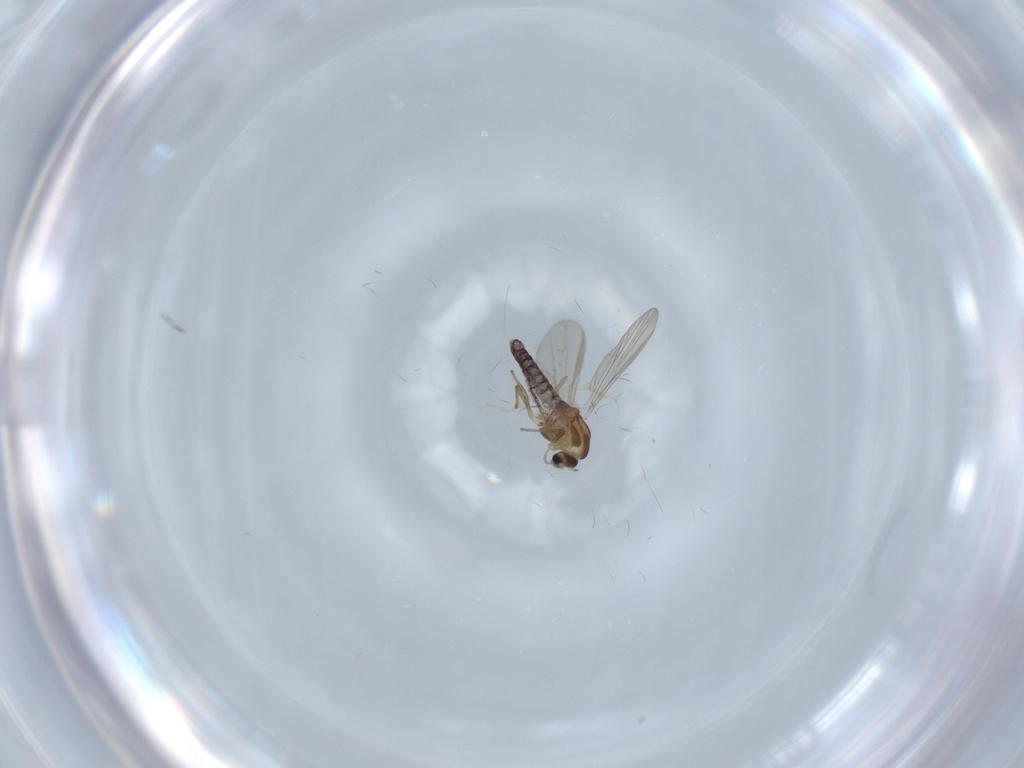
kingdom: Animalia
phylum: Arthropoda
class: Insecta
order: Diptera
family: Chironomidae
